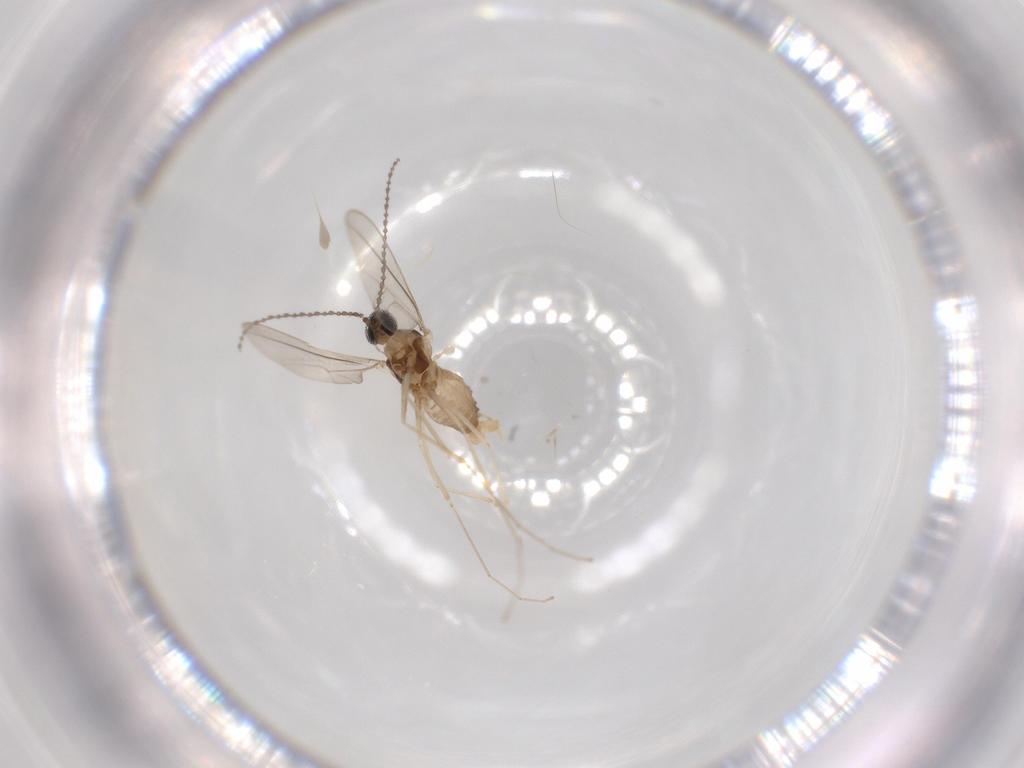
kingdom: Animalia
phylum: Arthropoda
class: Insecta
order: Diptera
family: Cecidomyiidae
